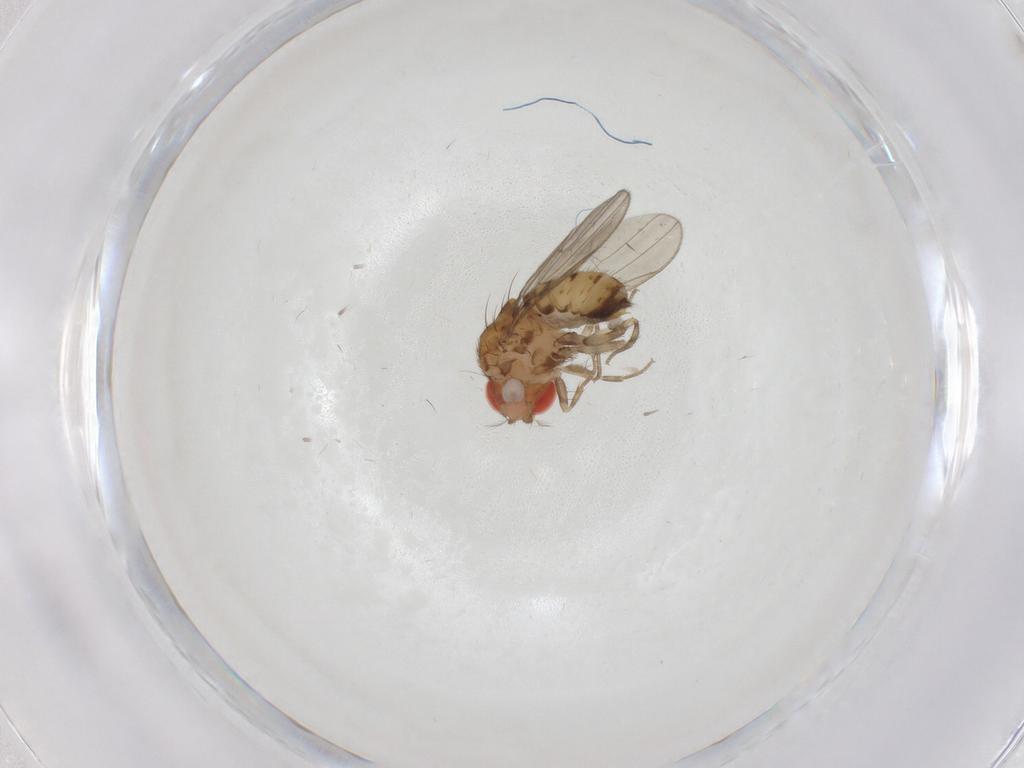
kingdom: Animalia
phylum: Arthropoda
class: Insecta
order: Diptera
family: Drosophilidae
